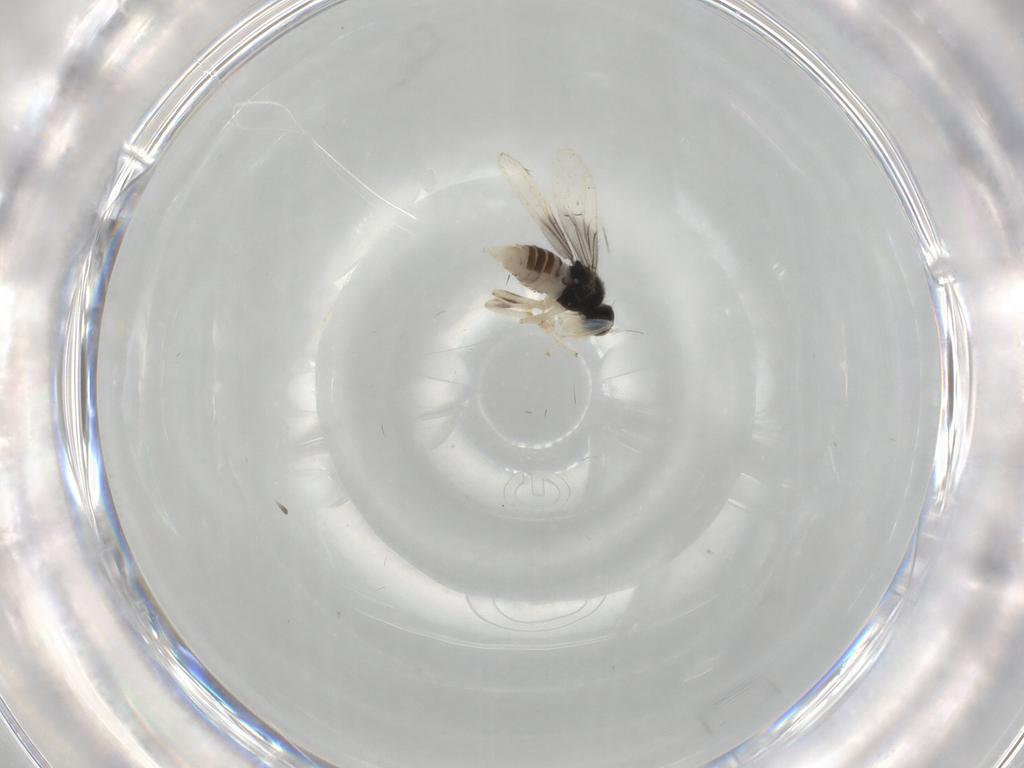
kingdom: Animalia
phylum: Arthropoda
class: Insecta
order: Diptera
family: Hybotidae
